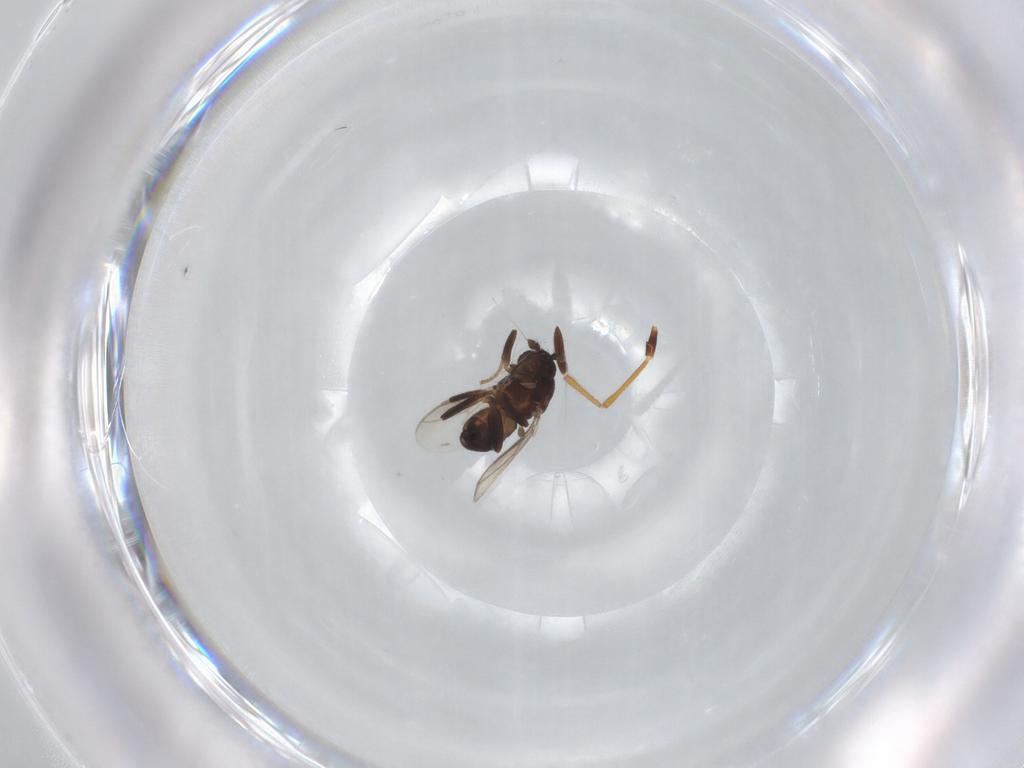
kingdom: Animalia
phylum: Arthropoda
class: Insecta
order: Diptera
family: Sphaeroceridae
